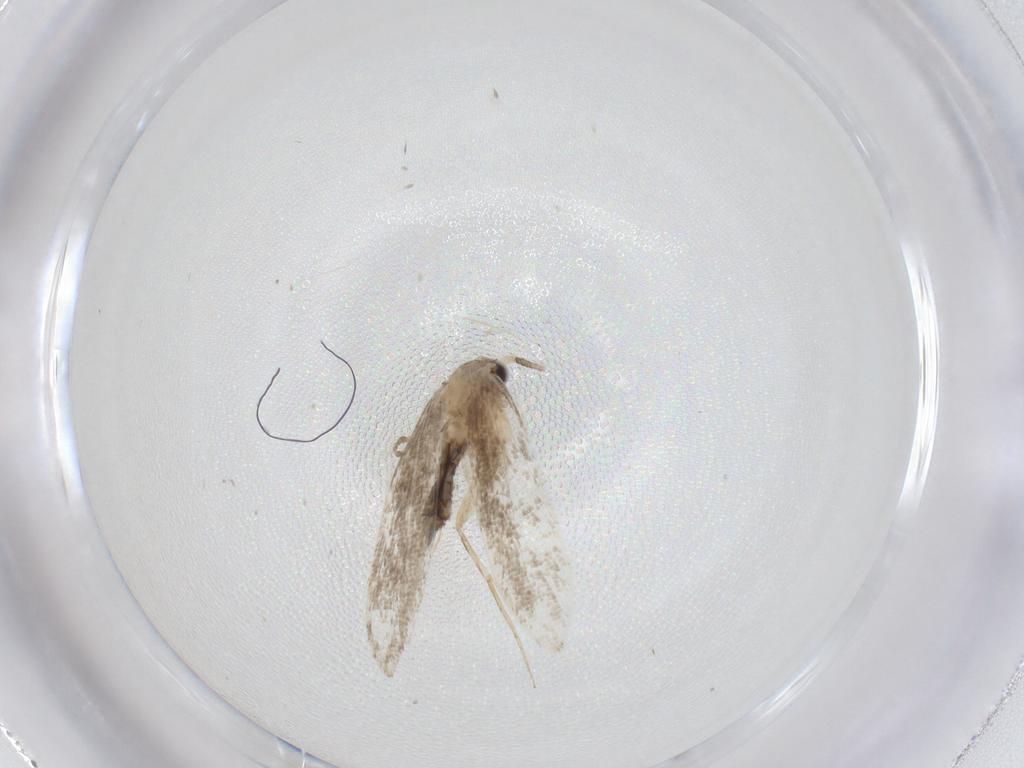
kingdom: Animalia
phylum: Arthropoda
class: Insecta
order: Lepidoptera
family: Tineidae
